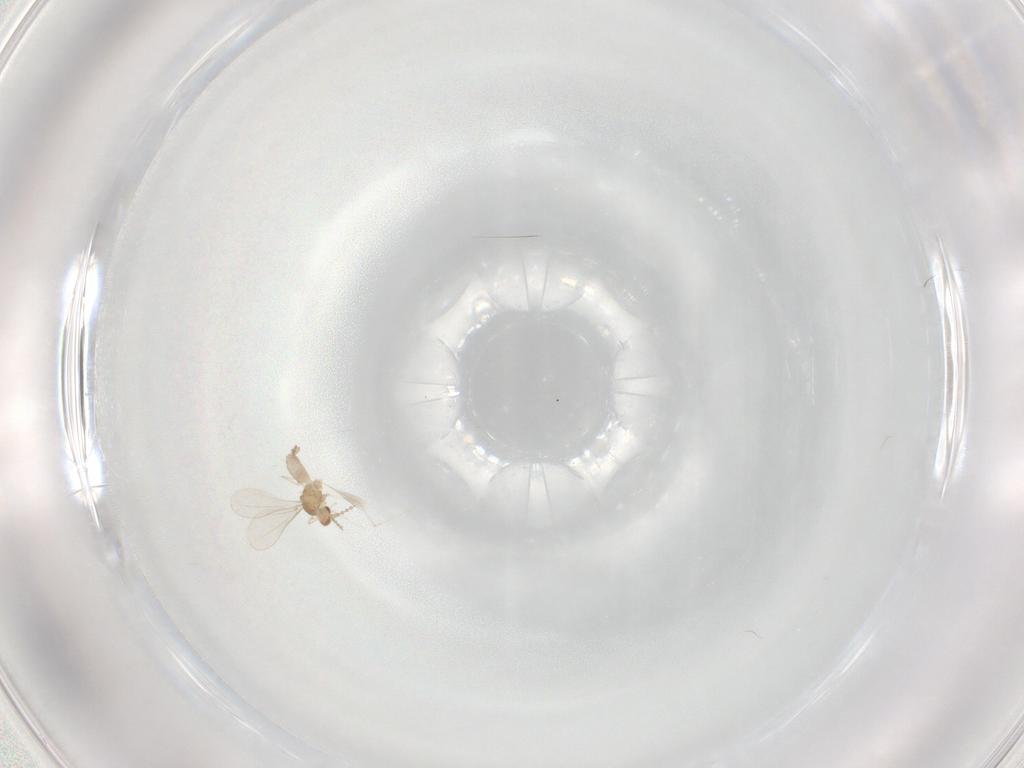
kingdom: Animalia
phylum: Arthropoda
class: Insecta
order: Diptera
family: Cecidomyiidae
